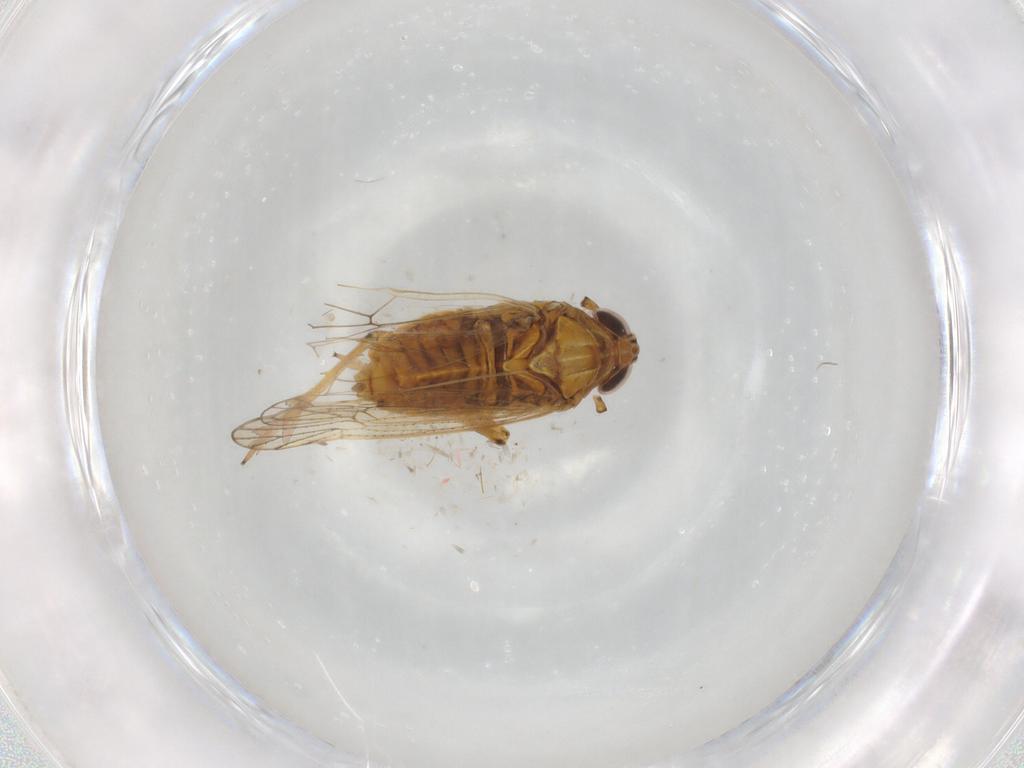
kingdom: Animalia
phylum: Arthropoda
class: Insecta
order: Hemiptera
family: Delphacidae
